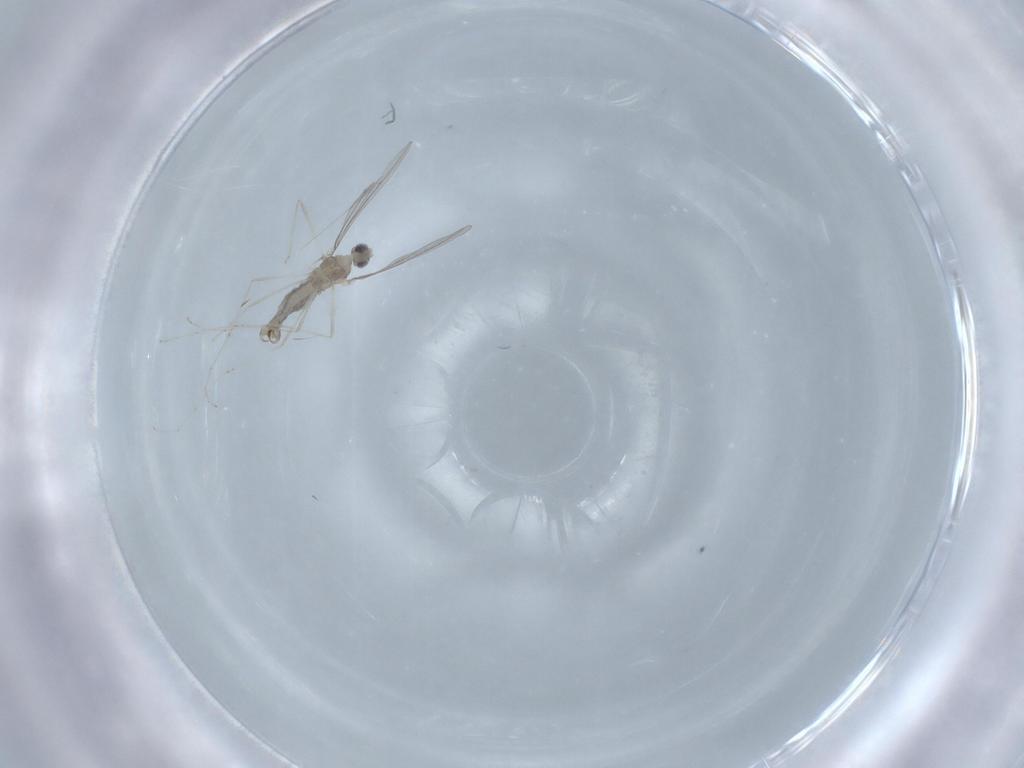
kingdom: Animalia
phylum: Arthropoda
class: Insecta
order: Diptera
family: Cecidomyiidae
